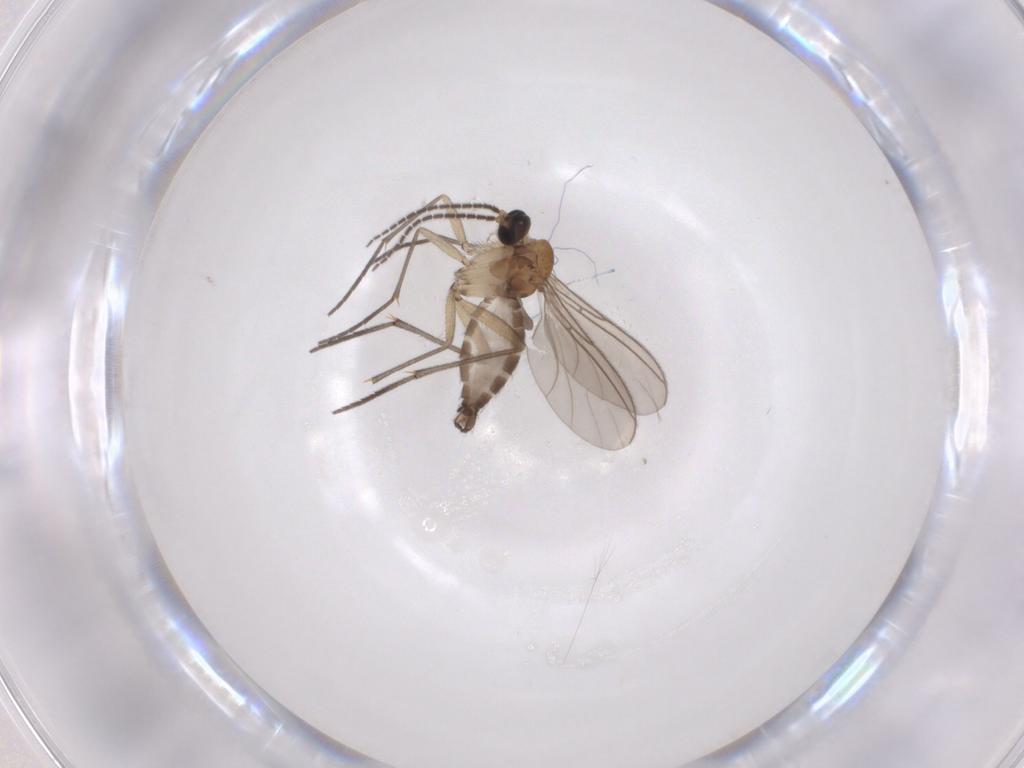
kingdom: Animalia
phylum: Arthropoda
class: Insecta
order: Diptera
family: Sciaridae
